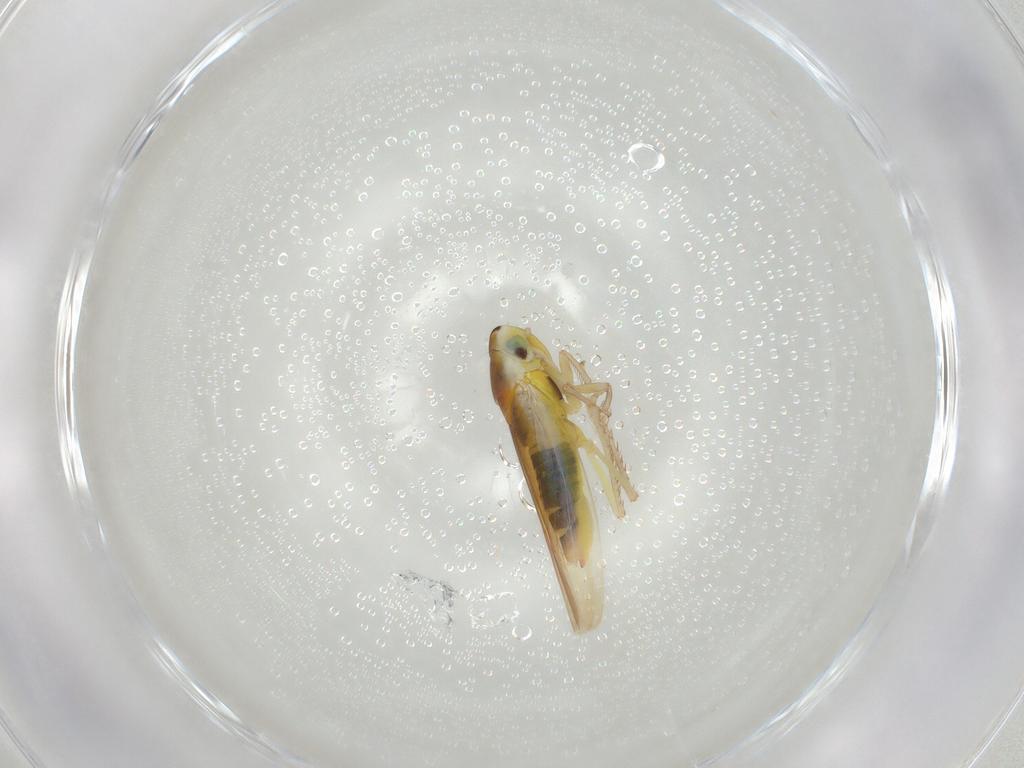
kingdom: Animalia
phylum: Arthropoda
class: Insecta
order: Hemiptera
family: Cicadellidae
